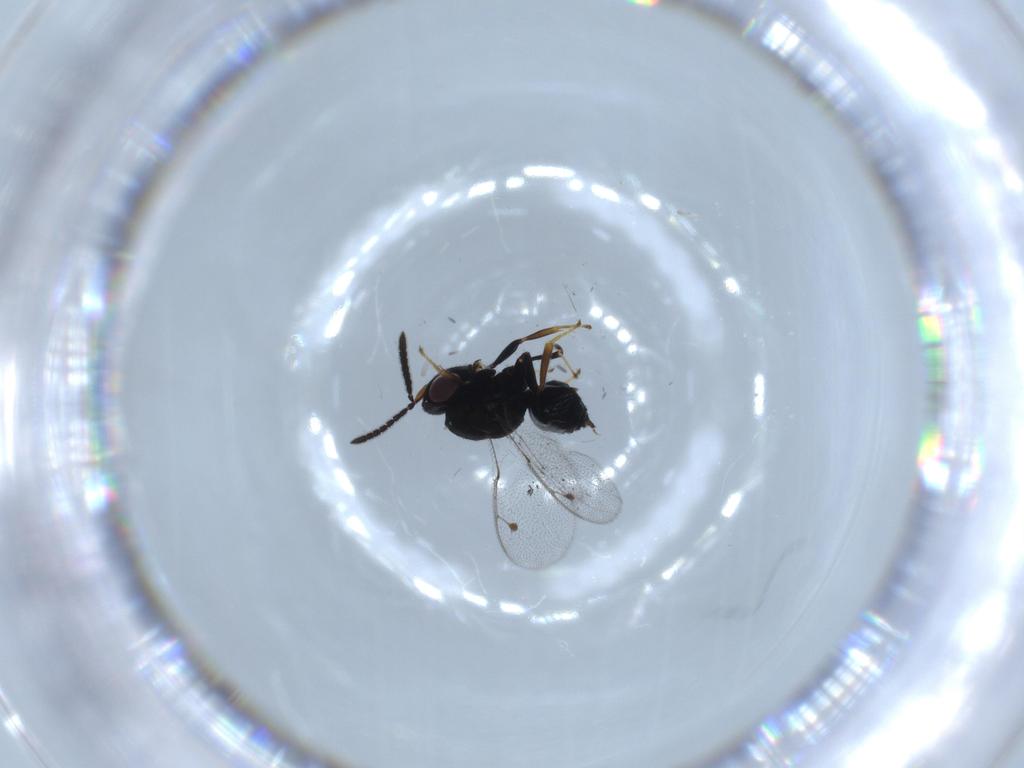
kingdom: Animalia
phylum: Arthropoda
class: Insecta
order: Hymenoptera
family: Eurytomidae
